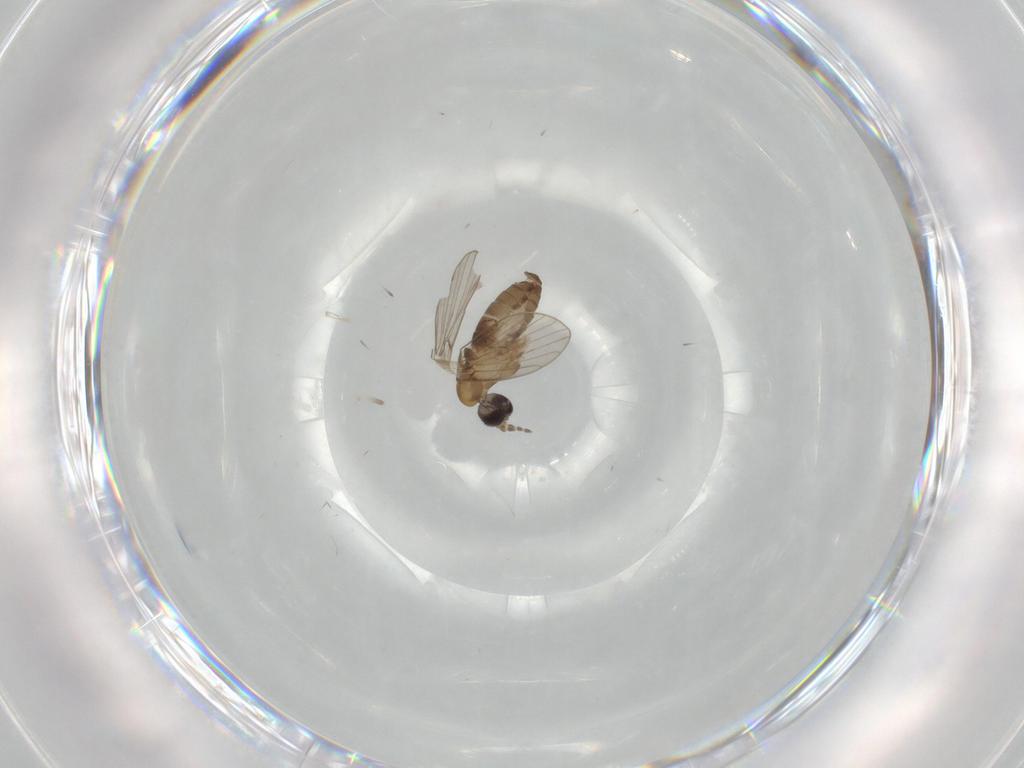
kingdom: Animalia
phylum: Arthropoda
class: Insecta
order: Diptera
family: Psychodidae
